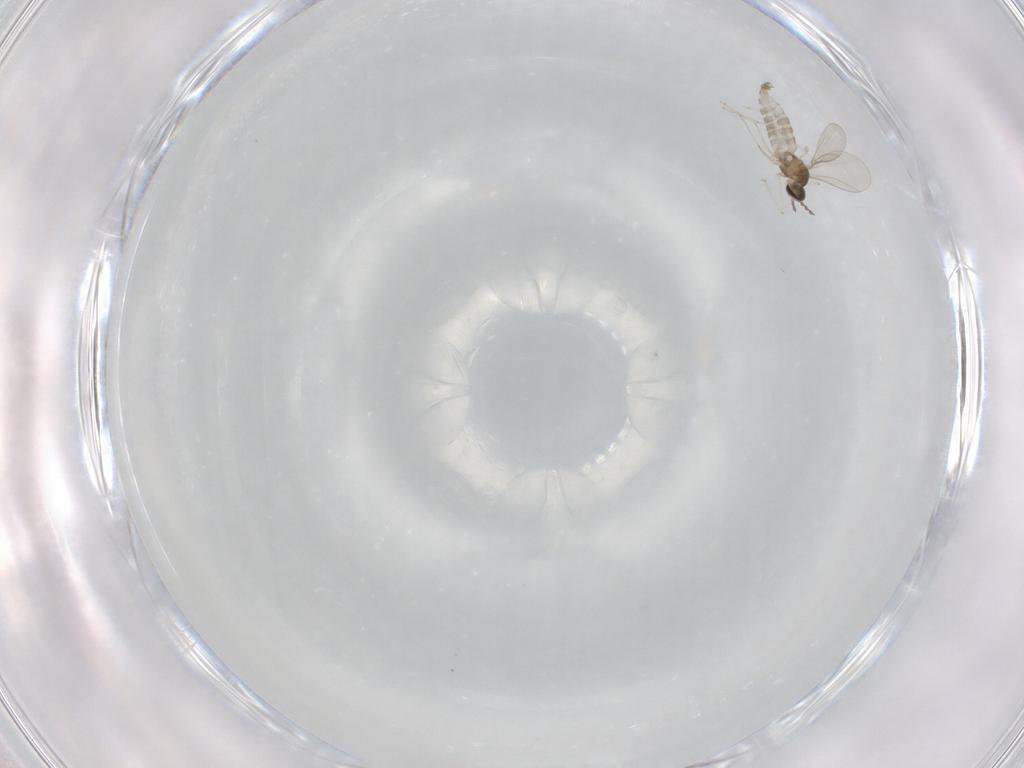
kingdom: Animalia
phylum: Arthropoda
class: Insecta
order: Diptera
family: Cecidomyiidae
